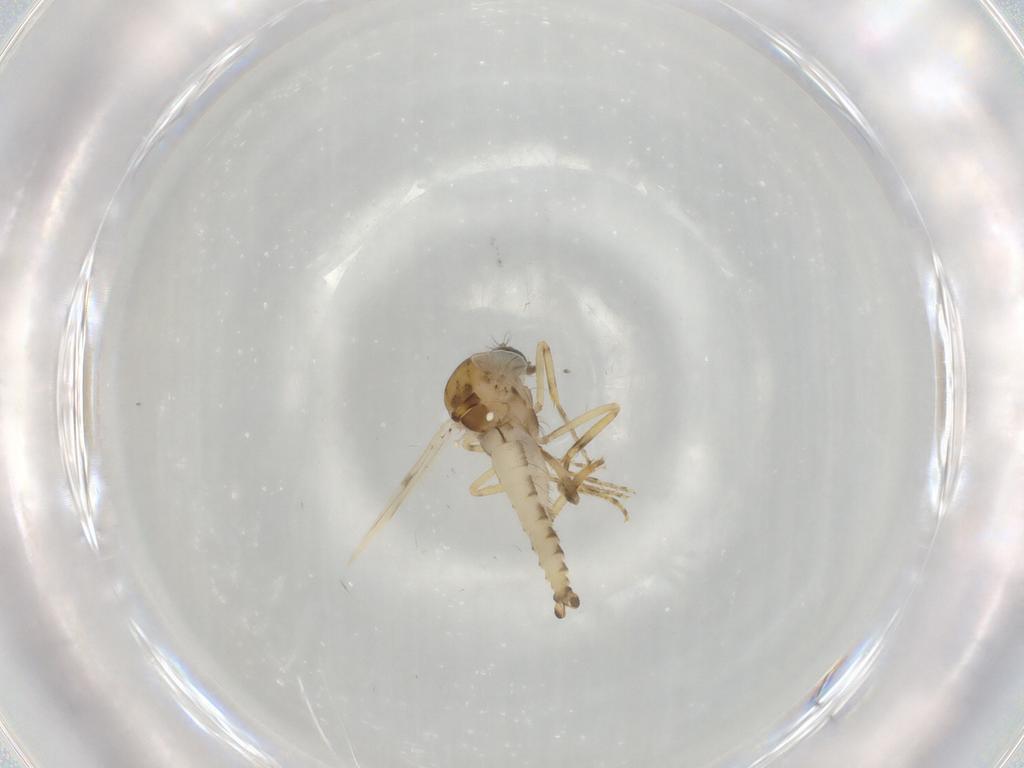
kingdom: Animalia
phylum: Arthropoda
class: Insecta
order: Diptera
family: Ceratopogonidae
